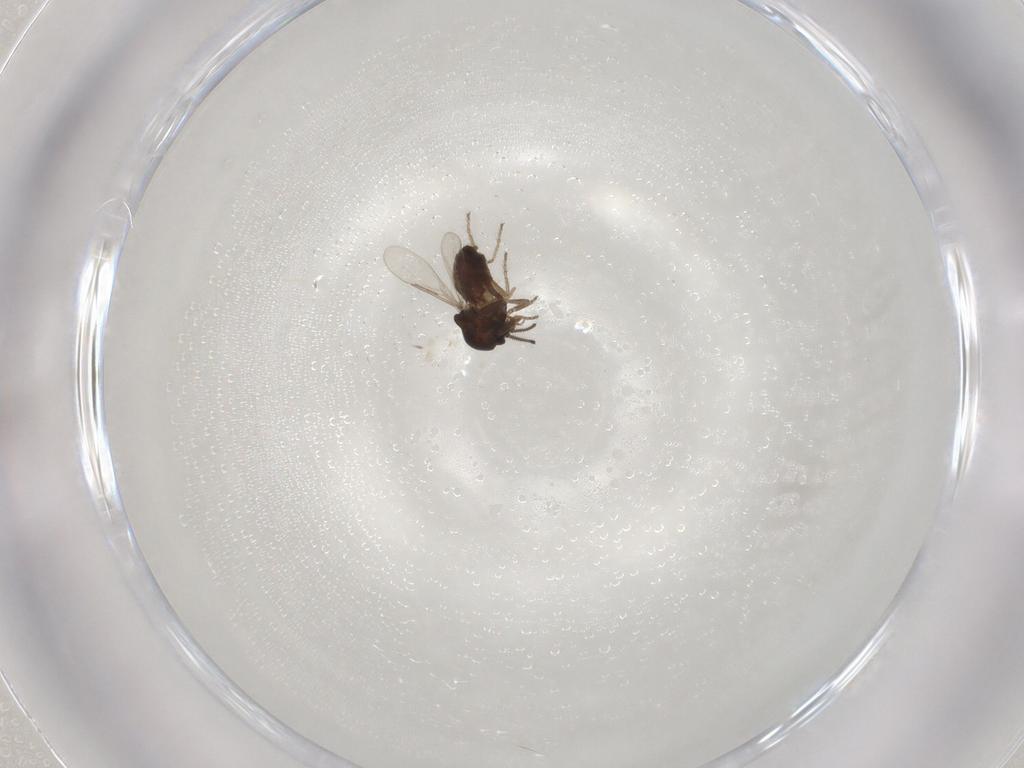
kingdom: Animalia
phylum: Arthropoda
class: Insecta
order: Diptera
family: Ceratopogonidae
